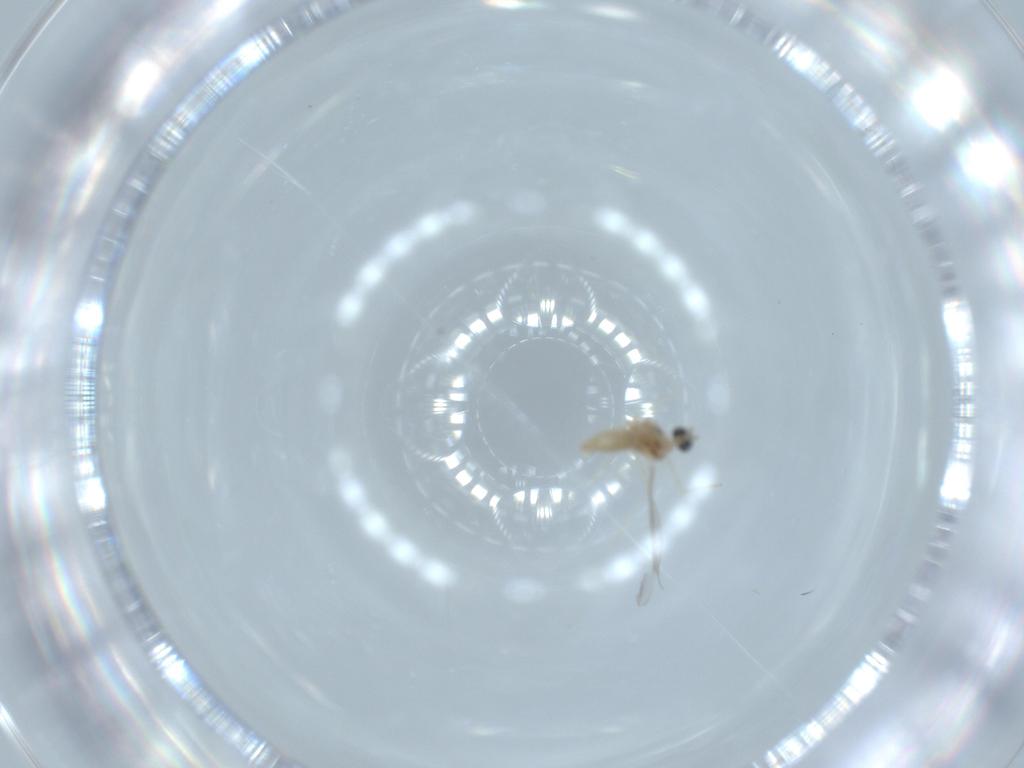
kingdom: Animalia
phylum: Arthropoda
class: Insecta
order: Diptera
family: Cecidomyiidae
